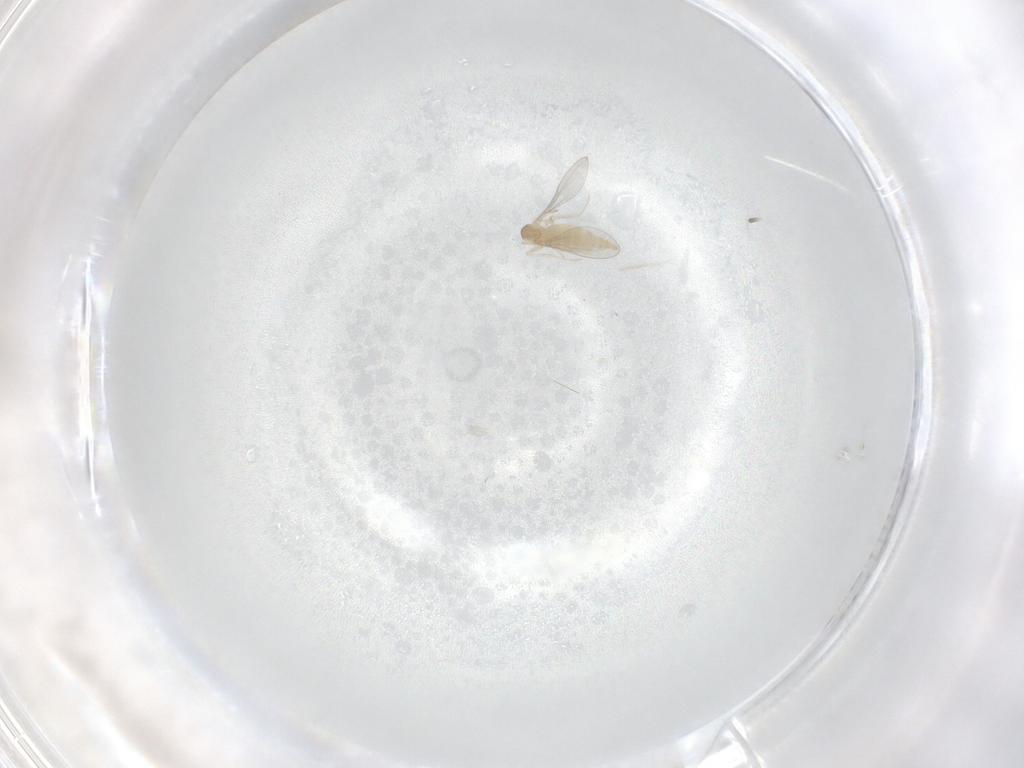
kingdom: Animalia
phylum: Arthropoda
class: Insecta
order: Diptera
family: Cecidomyiidae
